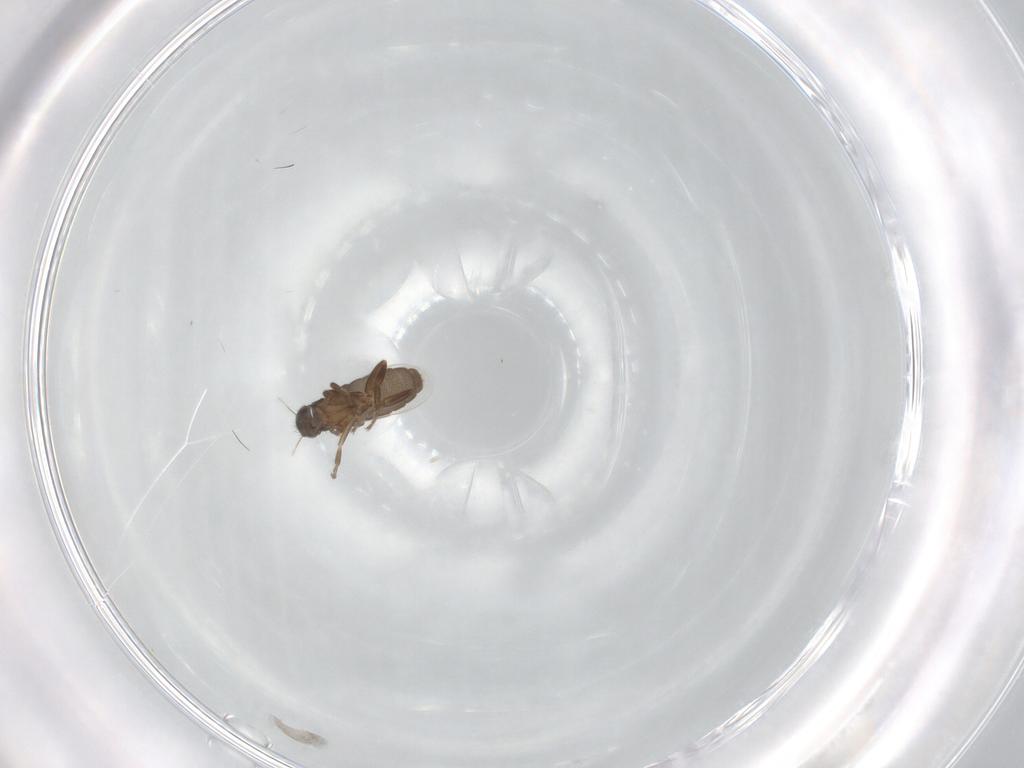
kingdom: Animalia
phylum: Arthropoda
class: Insecta
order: Diptera
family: Phoridae
